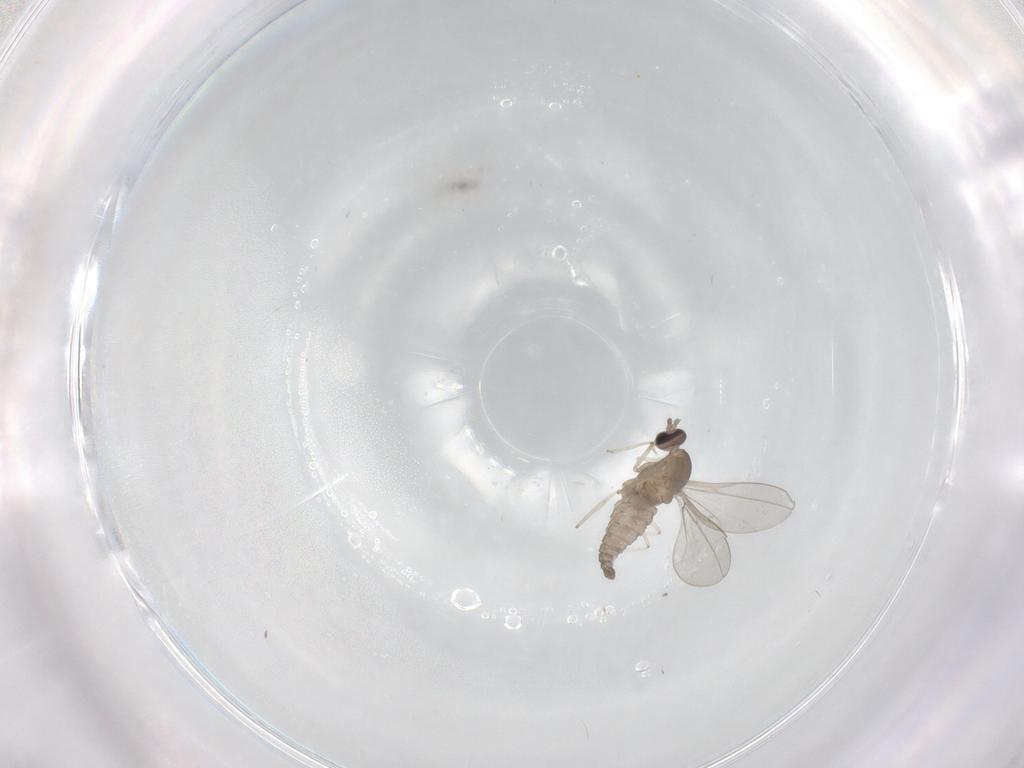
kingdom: Animalia
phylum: Arthropoda
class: Insecta
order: Diptera
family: Cecidomyiidae
